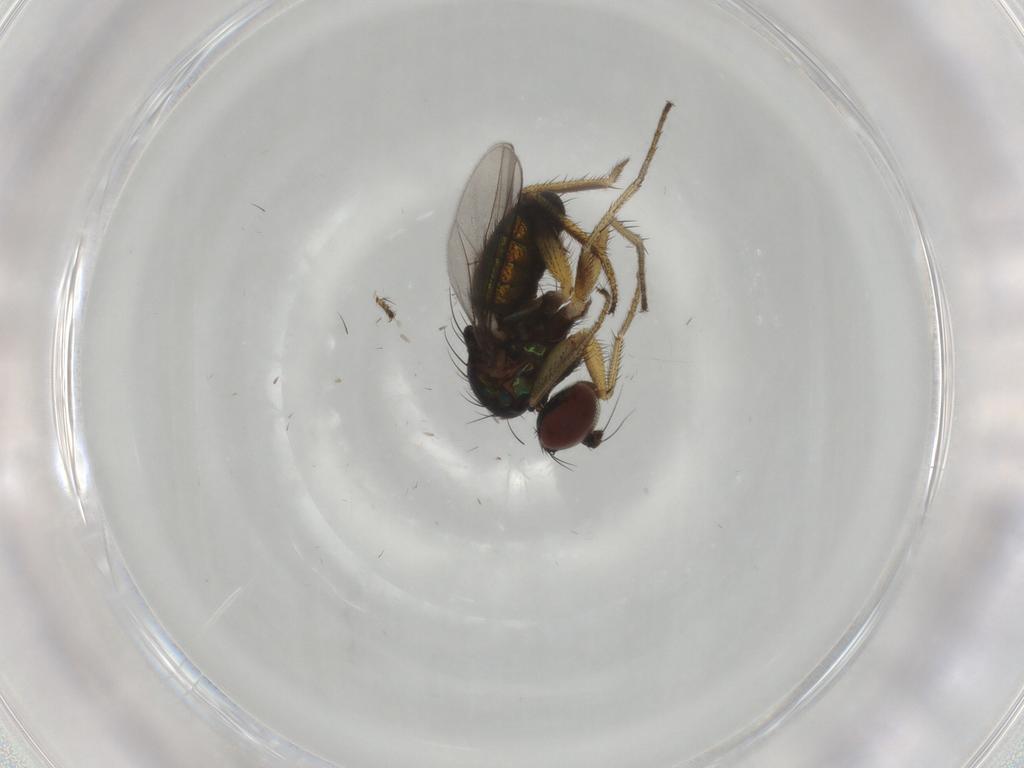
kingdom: Animalia
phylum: Arthropoda
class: Insecta
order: Diptera
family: Dolichopodidae
